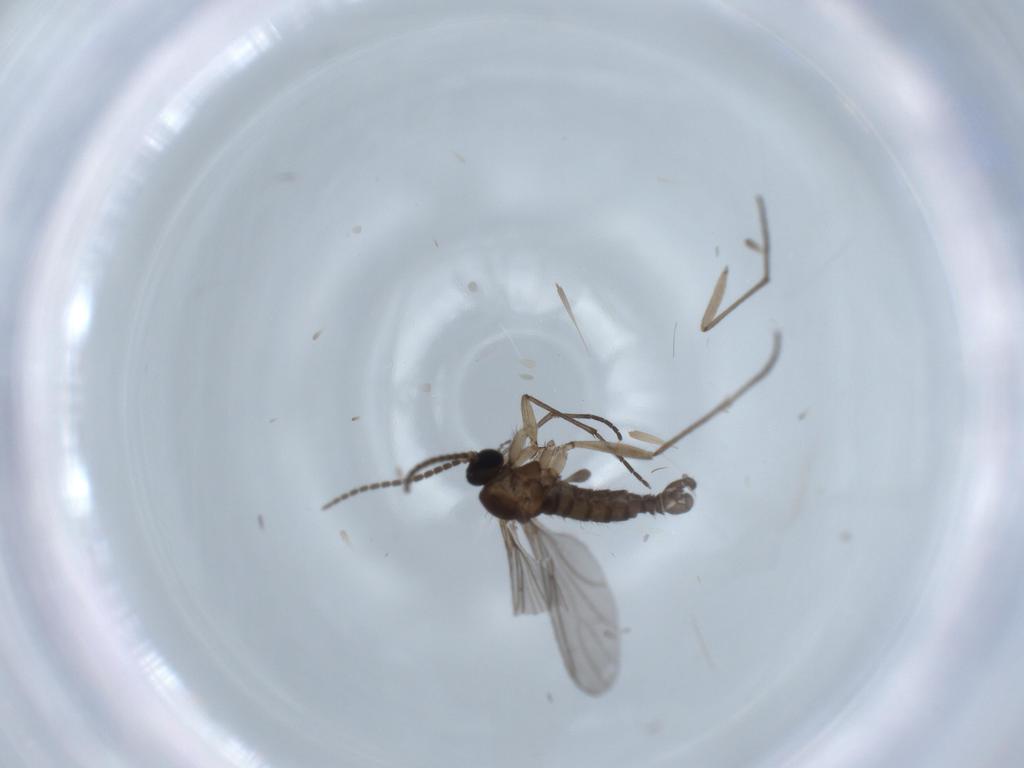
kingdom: Animalia
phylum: Arthropoda
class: Insecta
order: Diptera
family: Sciaridae
